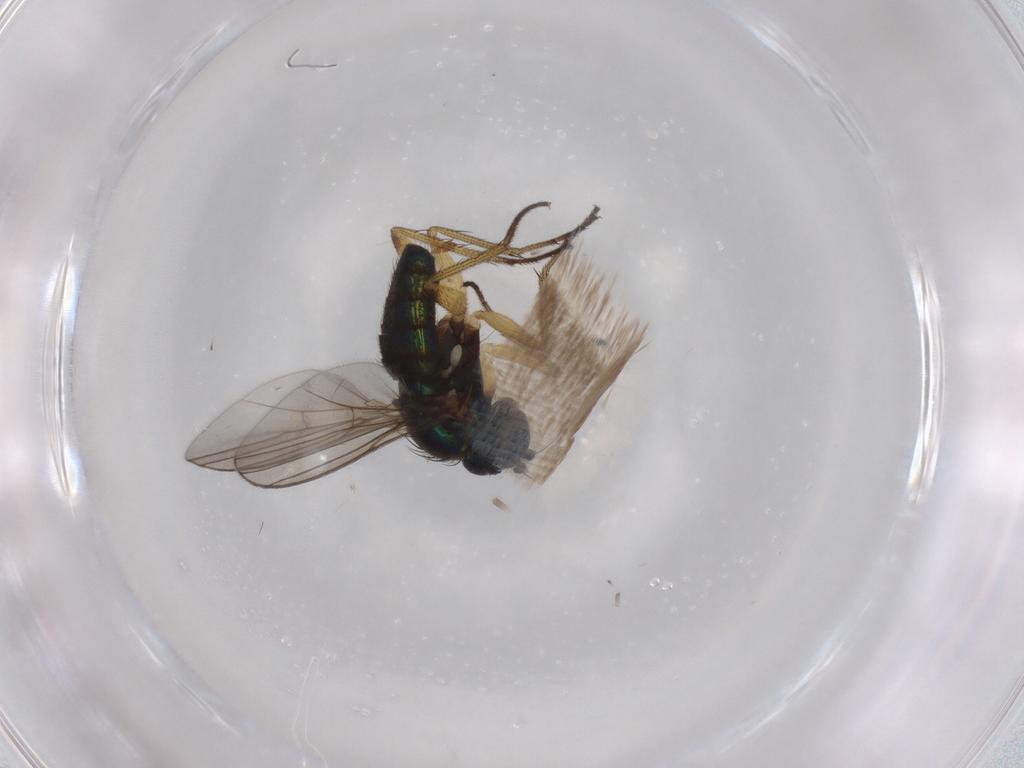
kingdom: Animalia
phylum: Arthropoda
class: Insecta
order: Diptera
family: Dolichopodidae
